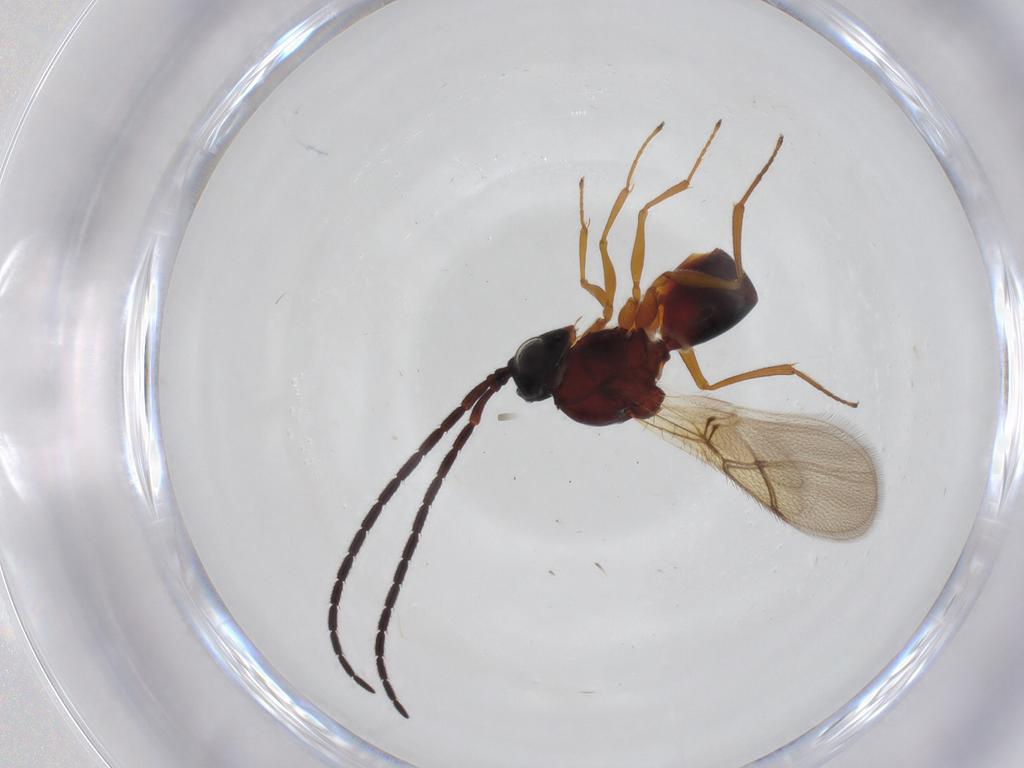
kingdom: Animalia
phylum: Arthropoda
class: Insecta
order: Hymenoptera
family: Figitidae
